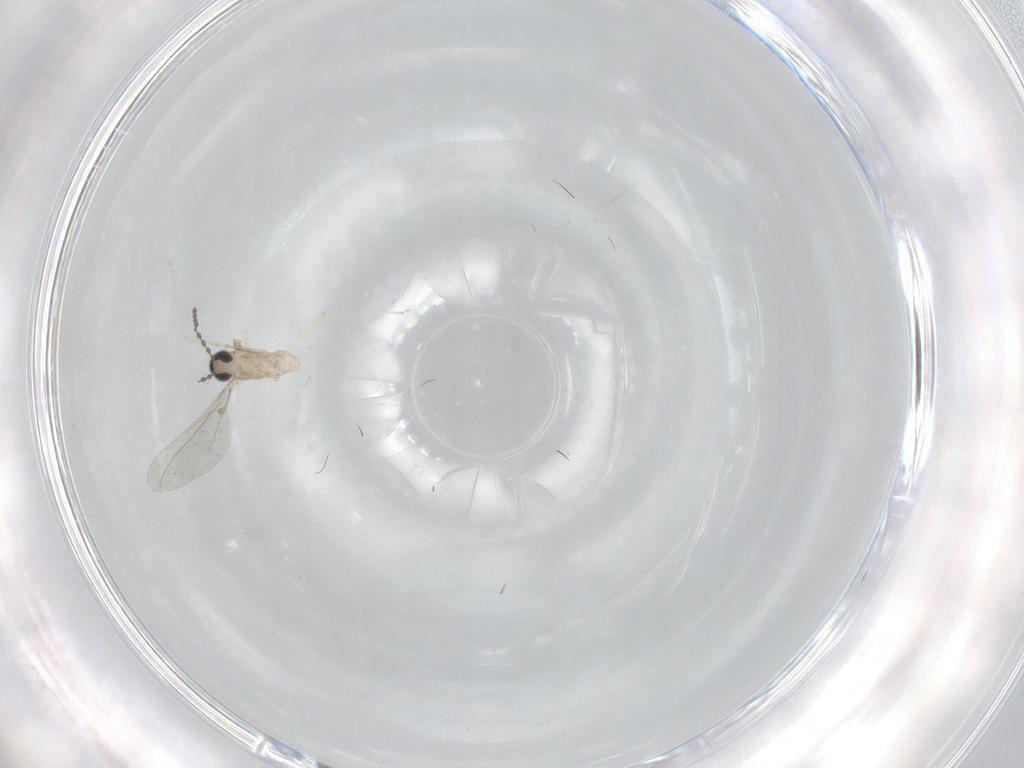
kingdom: Animalia
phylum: Arthropoda
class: Insecta
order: Diptera
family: Cecidomyiidae
